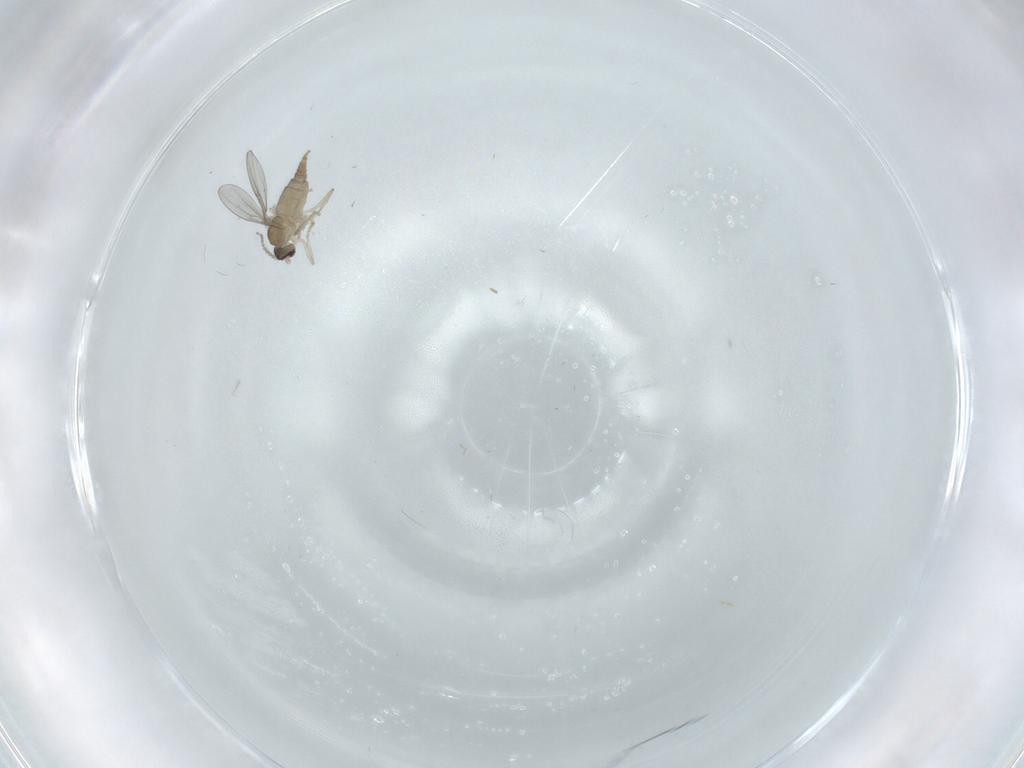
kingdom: Animalia
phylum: Arthropoda
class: Insecta
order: Diptera
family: Cecidomyiidae
